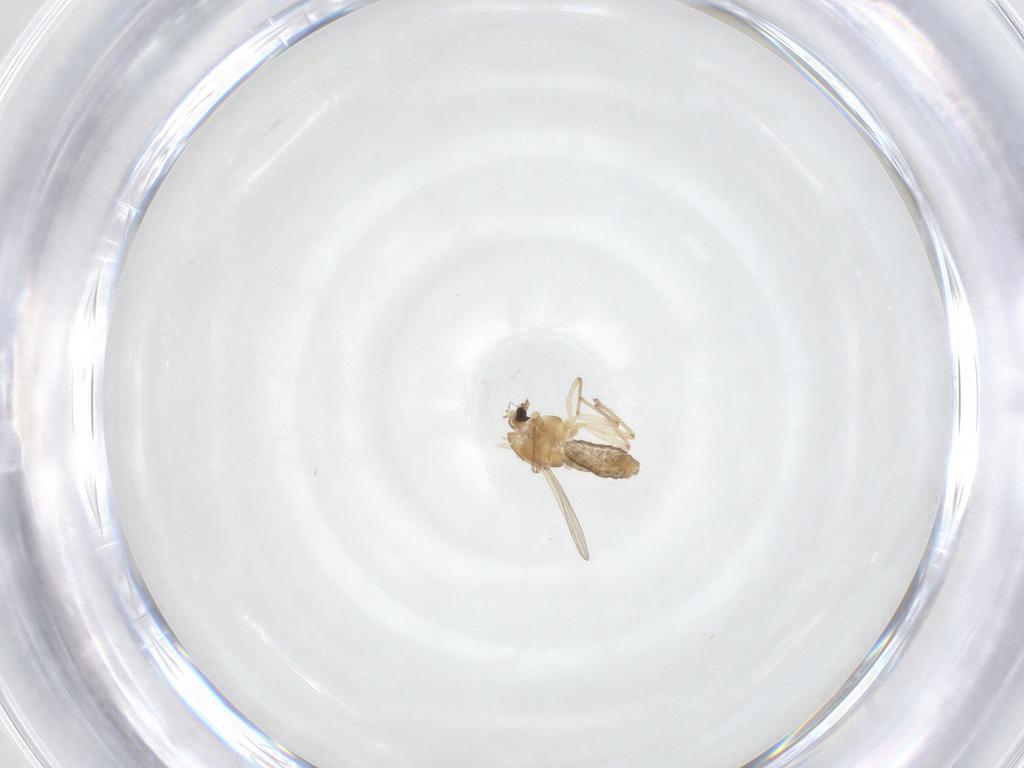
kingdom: Animalia
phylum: Arthropoda
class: Insecta
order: Diptera
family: Chironomidae
